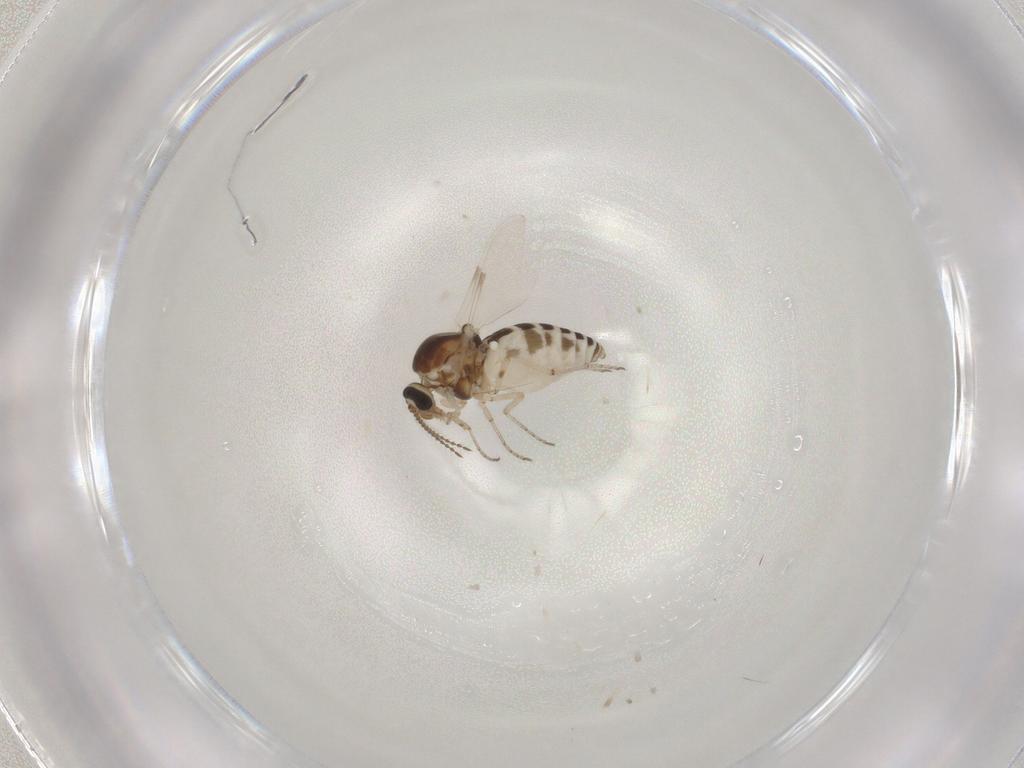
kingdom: Animalia
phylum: Arthropoda
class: Insecta
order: Diptera
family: Ceratopogonidae
